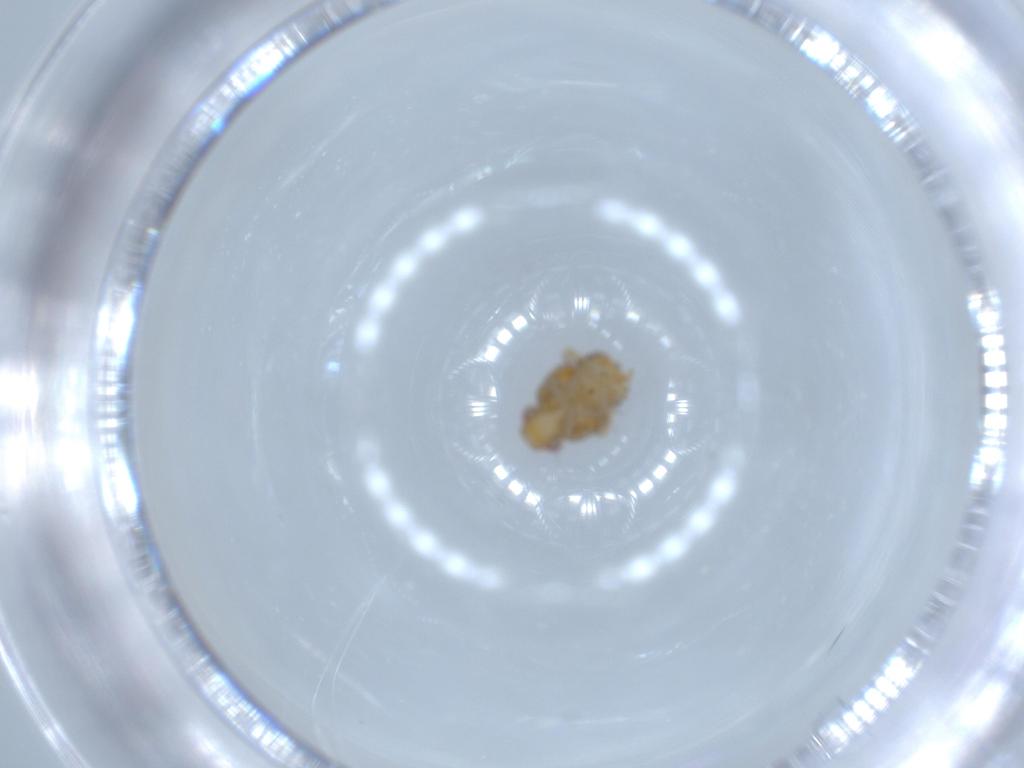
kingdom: Animalia
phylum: Arthropoda
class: Insecta
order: Hemiptera
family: Issidae
